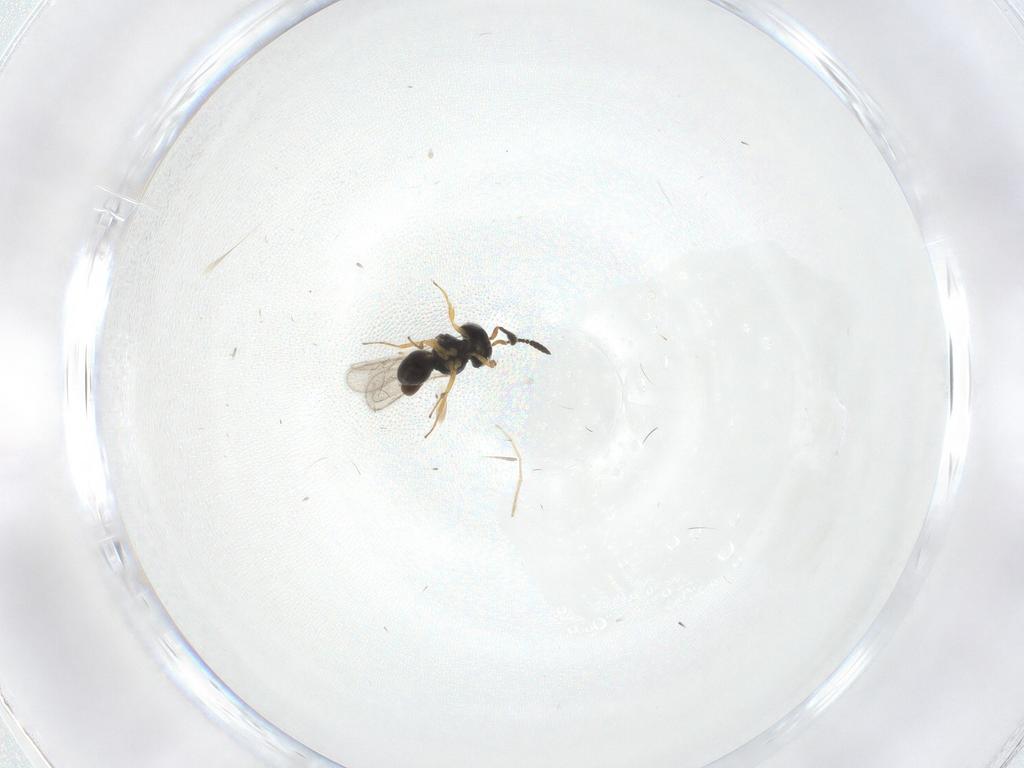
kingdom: Animalia
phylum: Arthropoda
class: Insecta
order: Hymenoptera
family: Scelionidae
